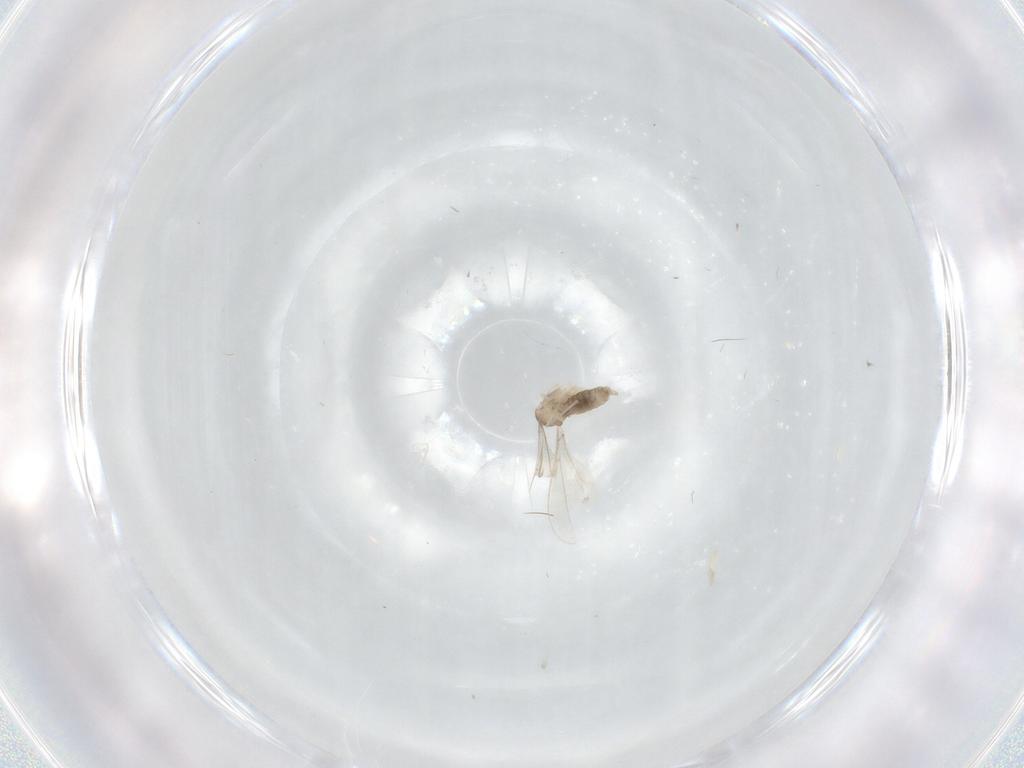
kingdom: Animalia
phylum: Arthropoda
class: Insecta
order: Diptera
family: Cecidomyiidae
